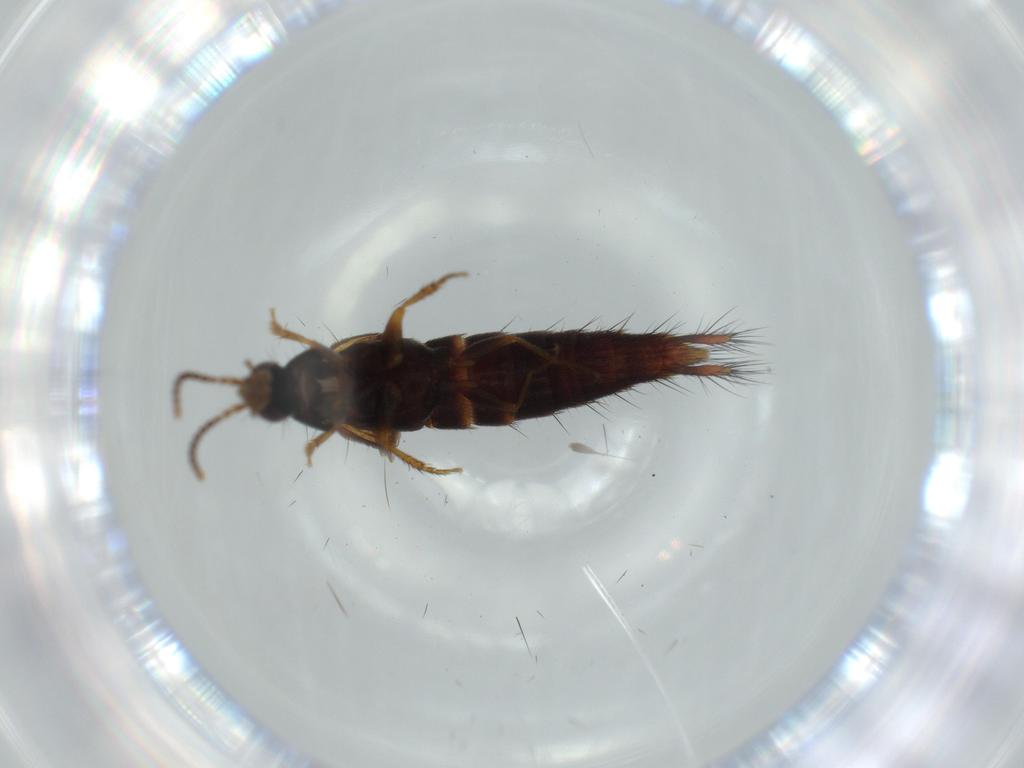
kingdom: Animalia
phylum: Arthropoda
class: Insecta
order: Coleoptera
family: Staphylinidae
